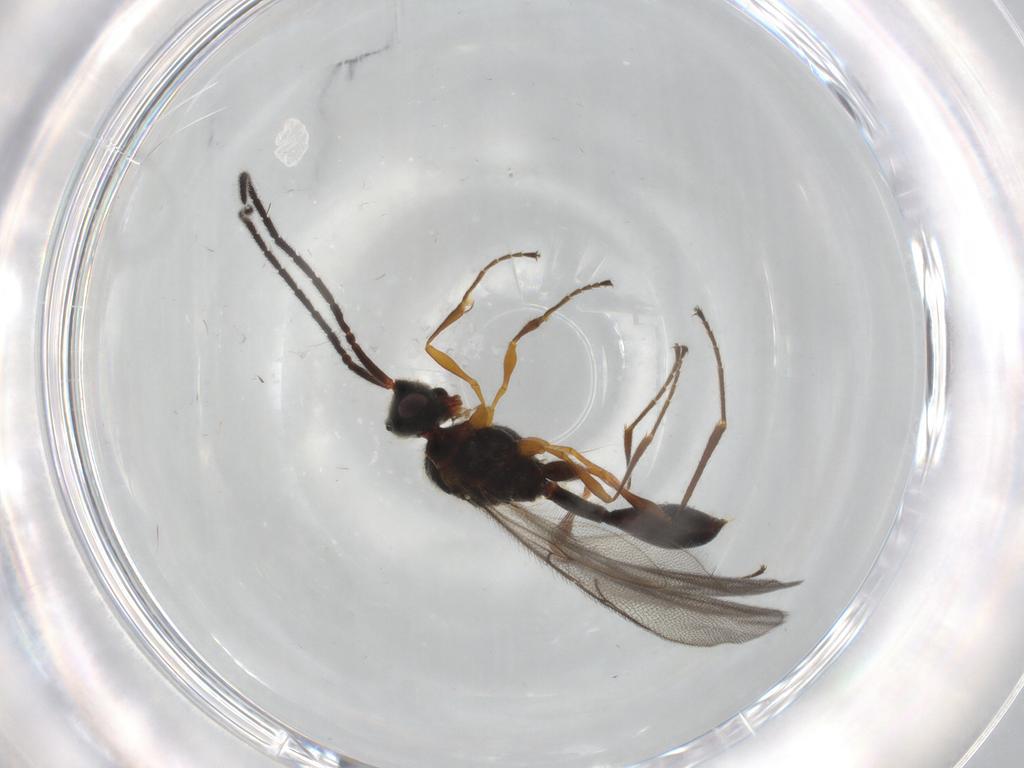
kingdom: Animalia
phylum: Arthropoda
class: Insecta
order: Hymenoptera
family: Diapriidae
